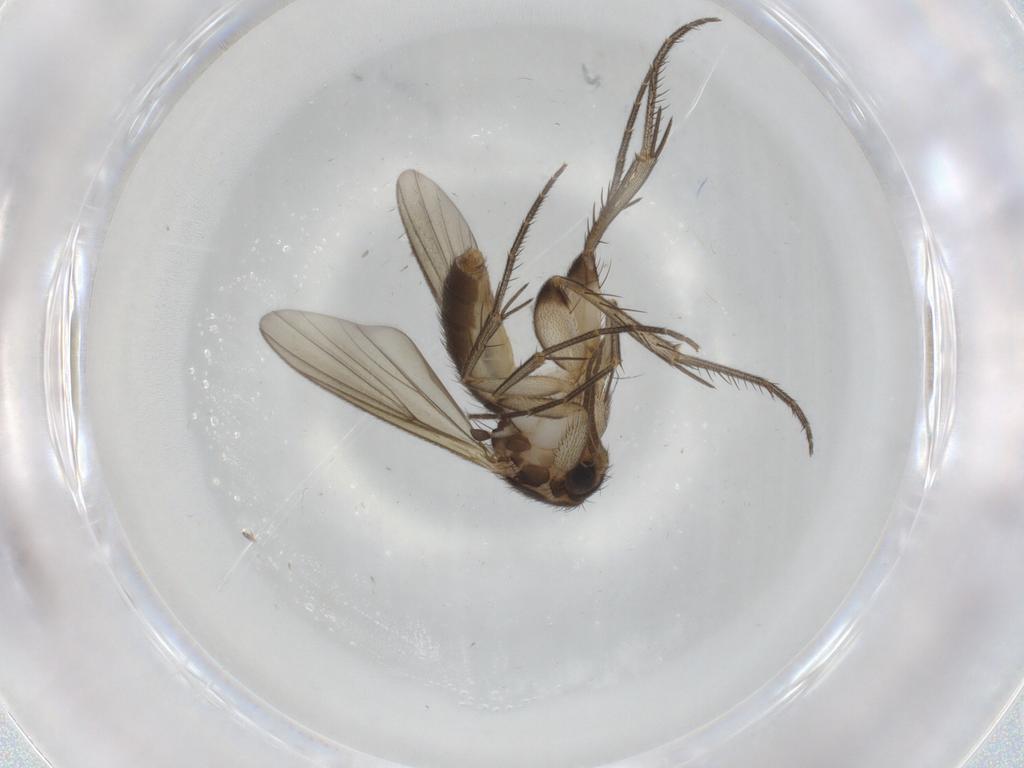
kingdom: Animalia
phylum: Arthropoda
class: Insecta
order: Diptera
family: Mycetophilidae
